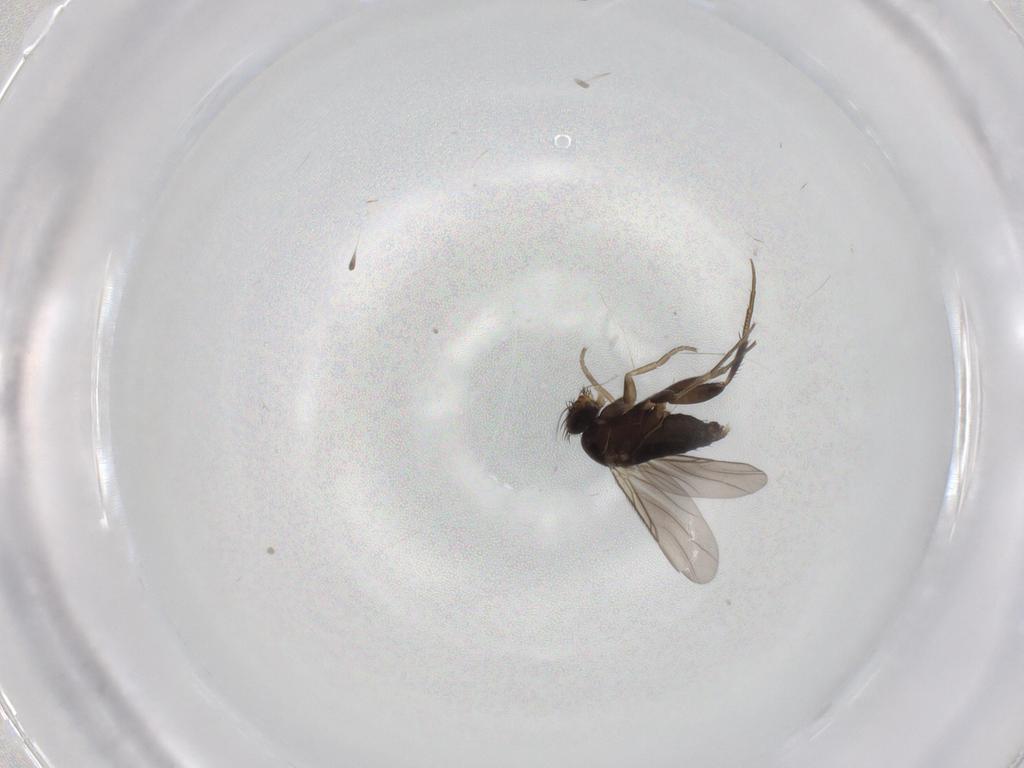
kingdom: Animalia
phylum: Arthropoda
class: Insecta
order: Diptera
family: Phoridae
